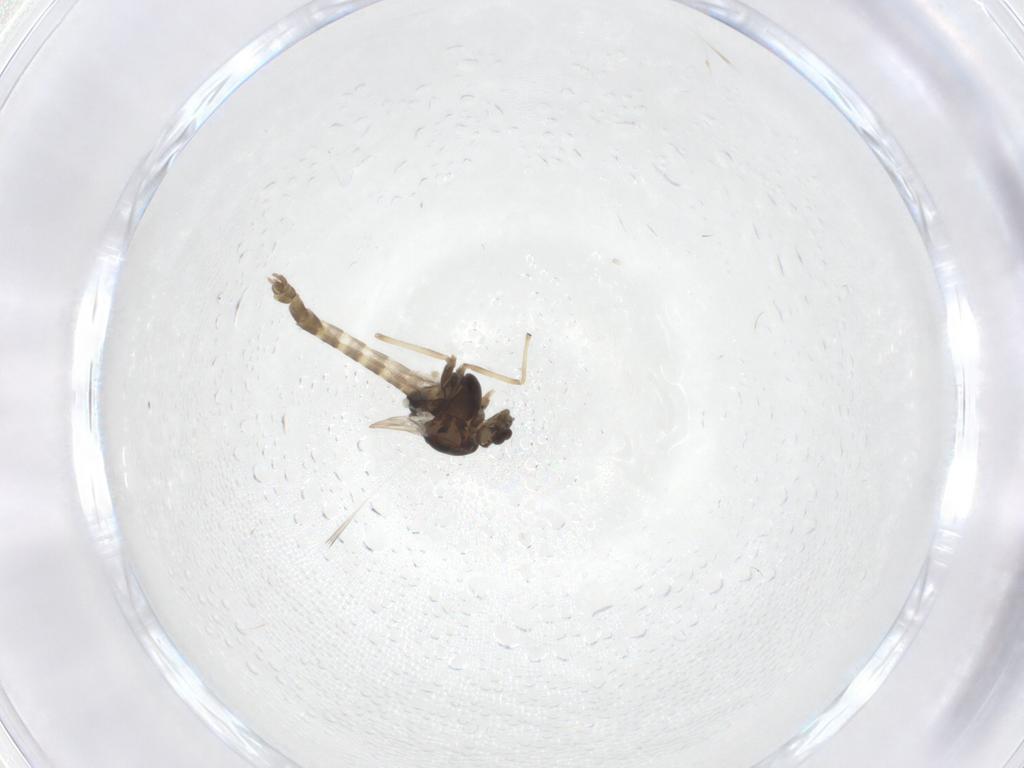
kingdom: Animalia
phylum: Arthropoda
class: Insecta
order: Diptera
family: Chironomidae
